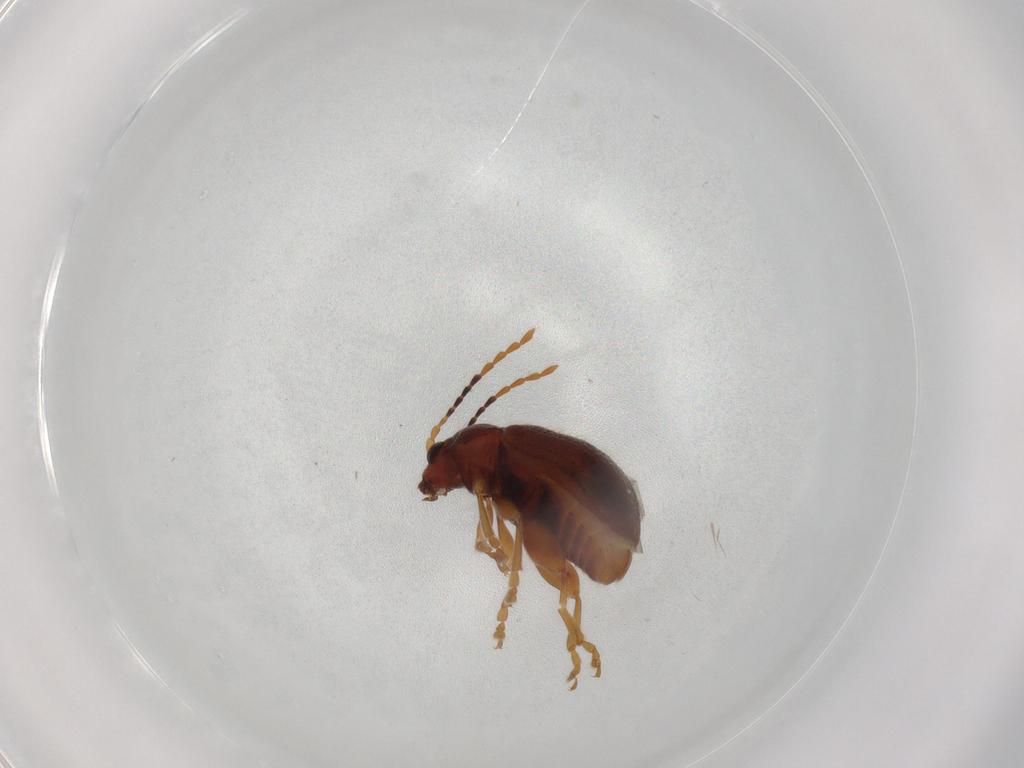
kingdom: Animalia
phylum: Arthropoda
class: Insecta
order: Coleoptera
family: Chrysomelidae
